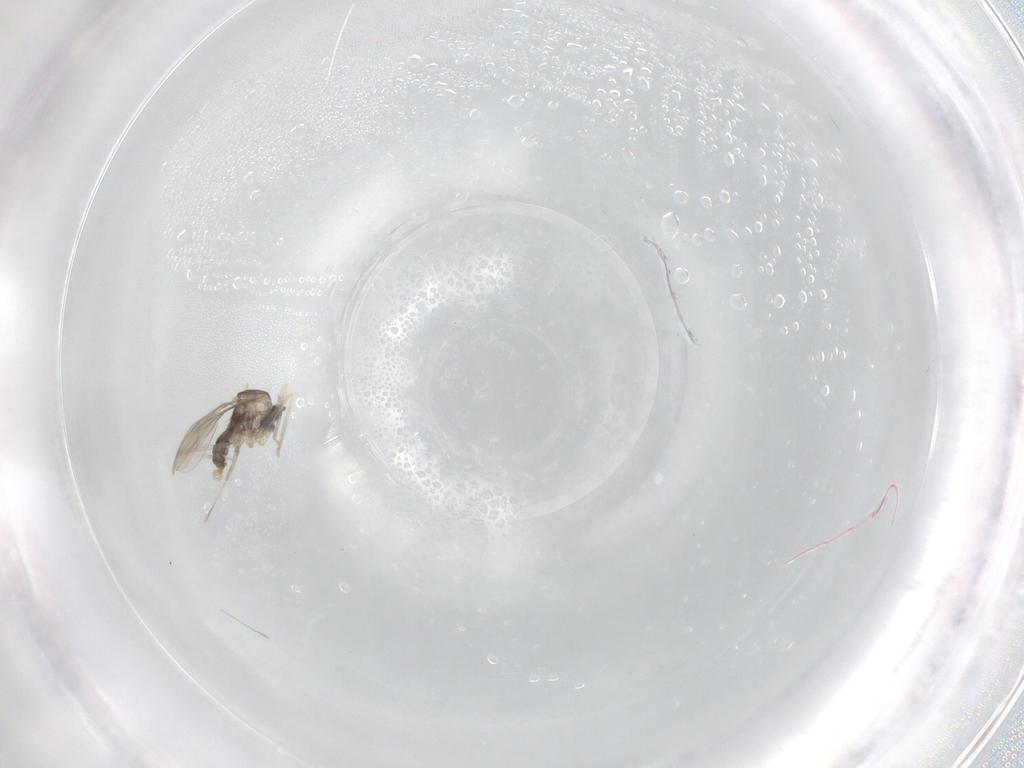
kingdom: Animalia
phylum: Arthropoda
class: Insecta
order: Diptera
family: Cecidomyiidae
